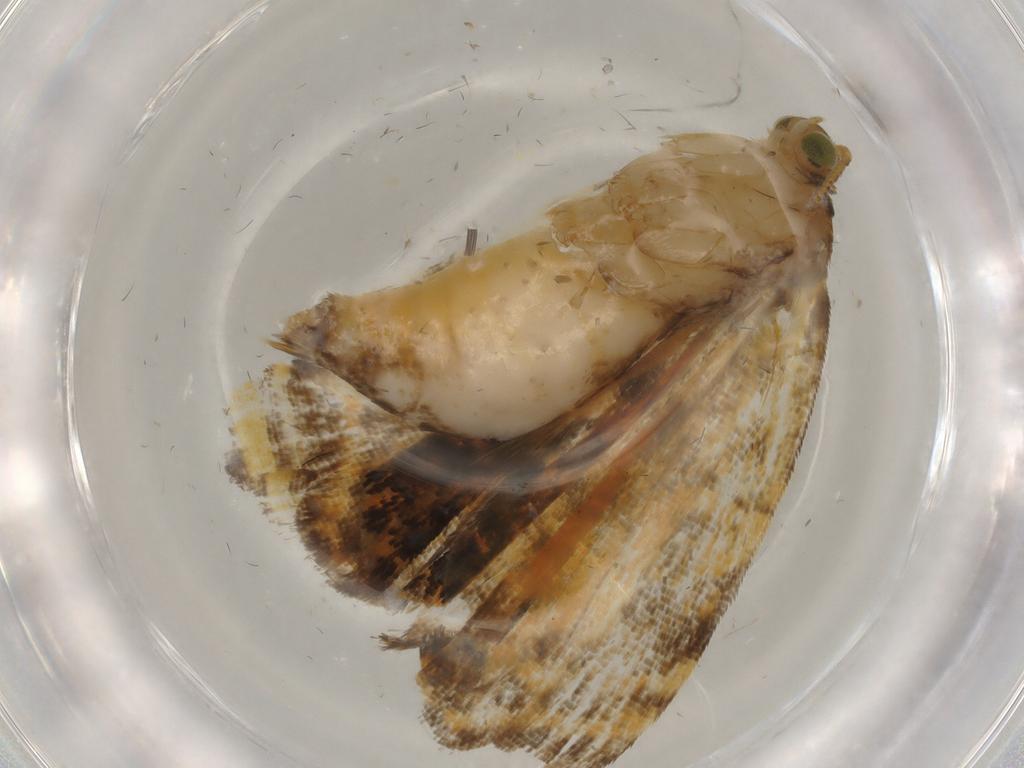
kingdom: Animalia
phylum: Arthropoda
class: Insecta
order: Lepidoptera
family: Tortricidae
